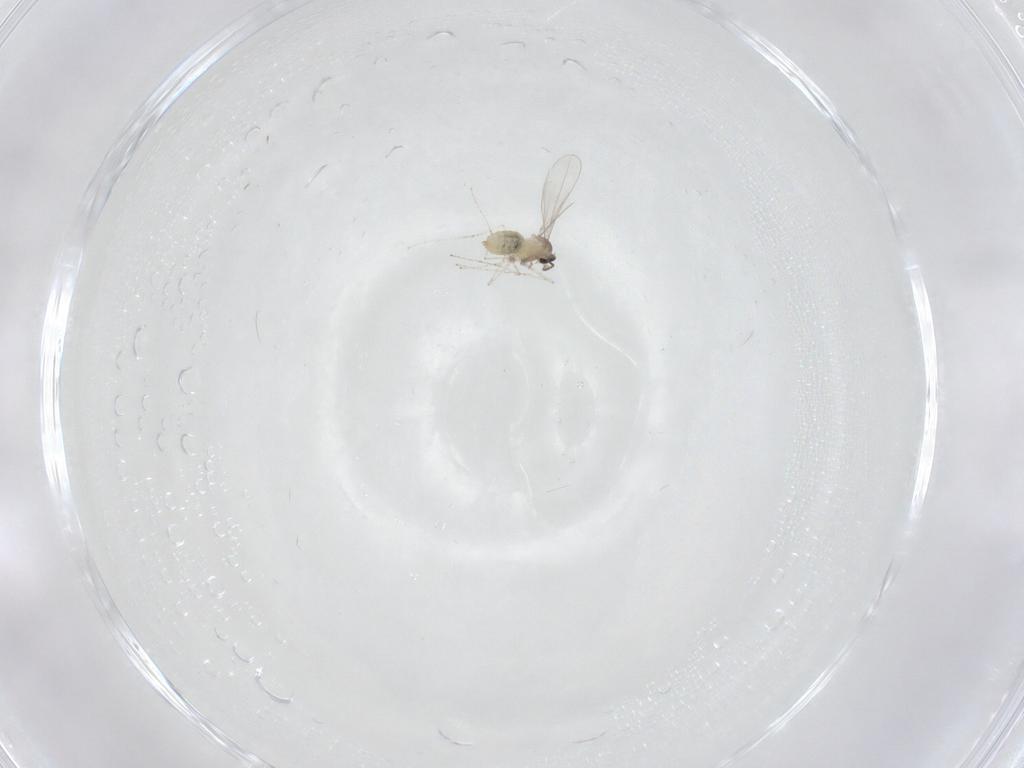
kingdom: Animalia
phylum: Arthropoda
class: Insecta
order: Diptera
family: Cecidomyiidae
